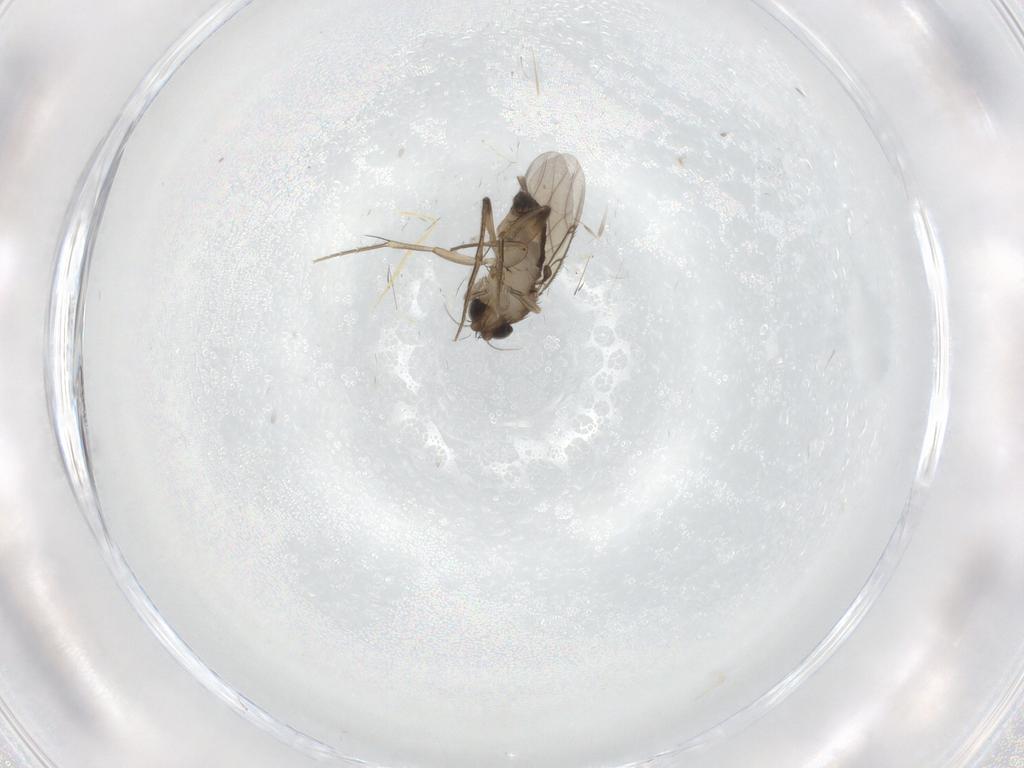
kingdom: Animalia
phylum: Arthropoda
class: Insecta
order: Diptera
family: Phoridae
